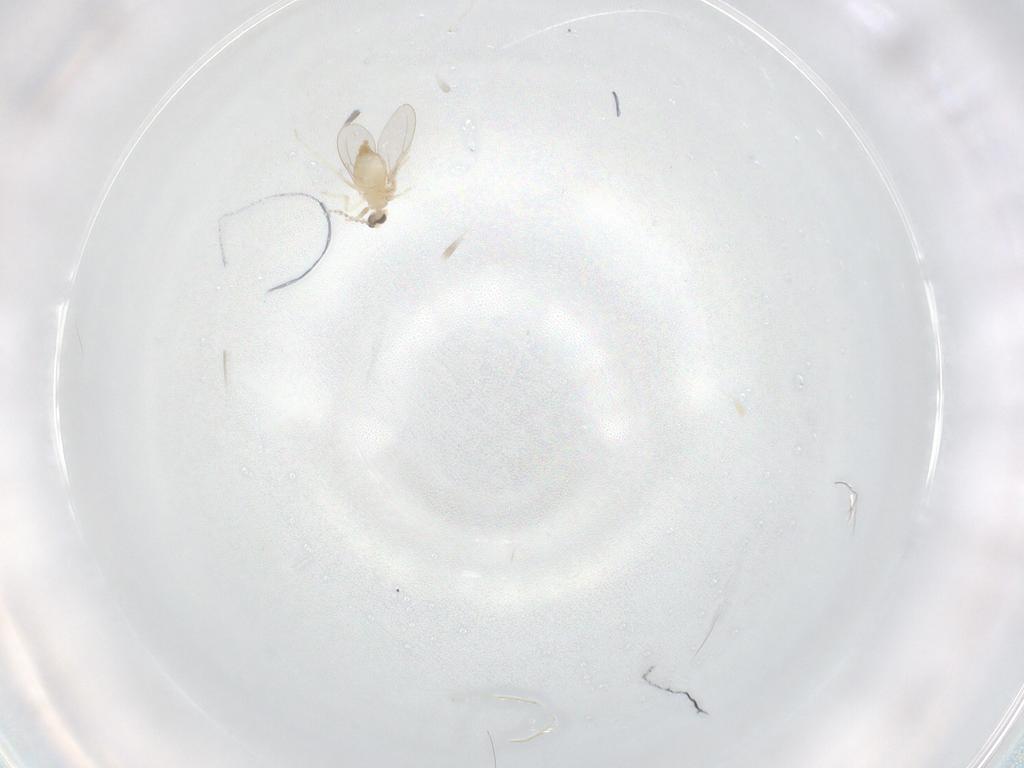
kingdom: Animalia
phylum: Arthropoda
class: Insecta
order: Diptera
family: Cecidomyiidae
